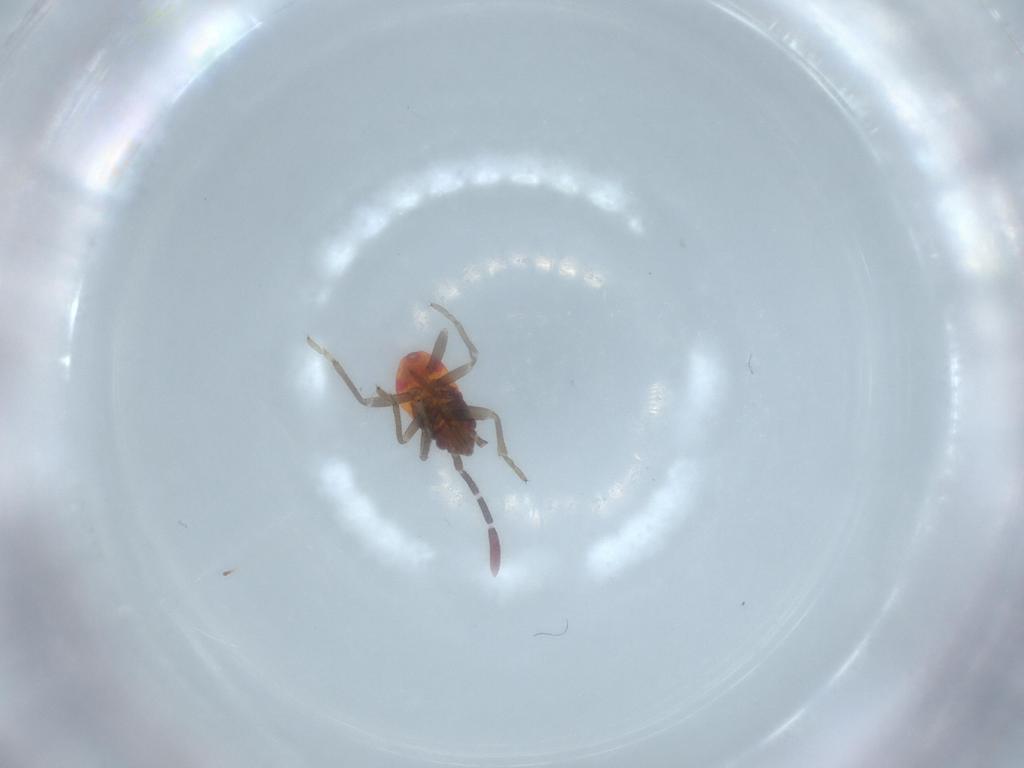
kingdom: Animalia
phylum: Arthropoda
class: Insecta
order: Hemiptera
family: Rhyparochromidae
